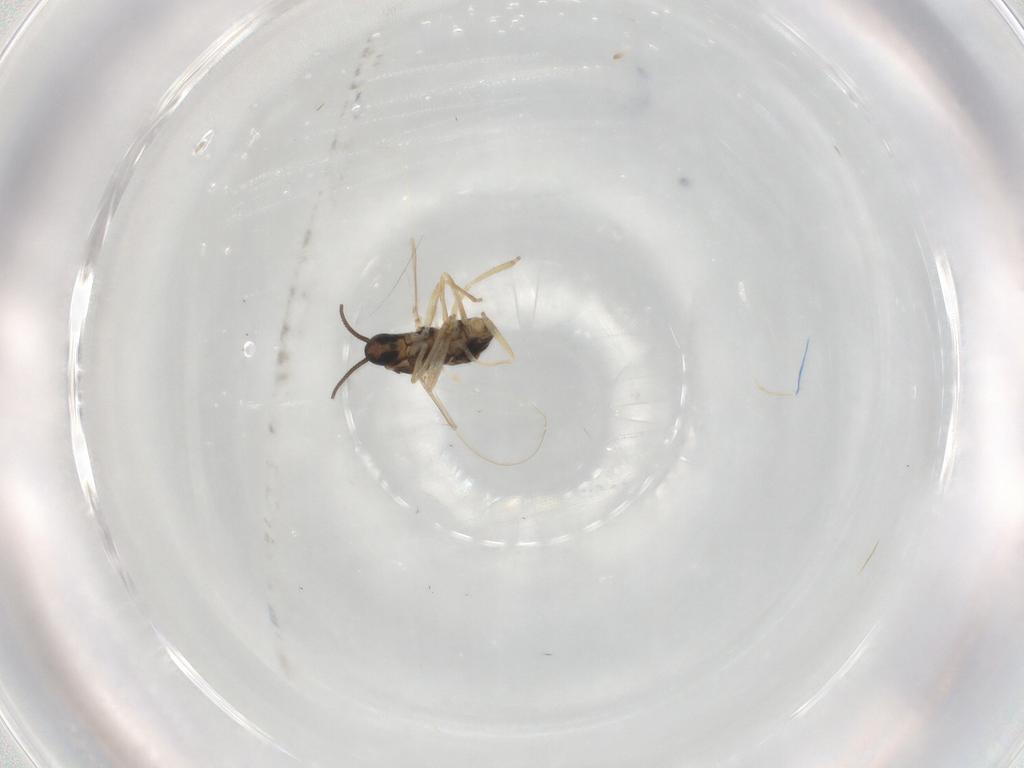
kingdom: Animalia
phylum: Arthropoda
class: Insecta
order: Diptera
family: Cecidomyiidae
